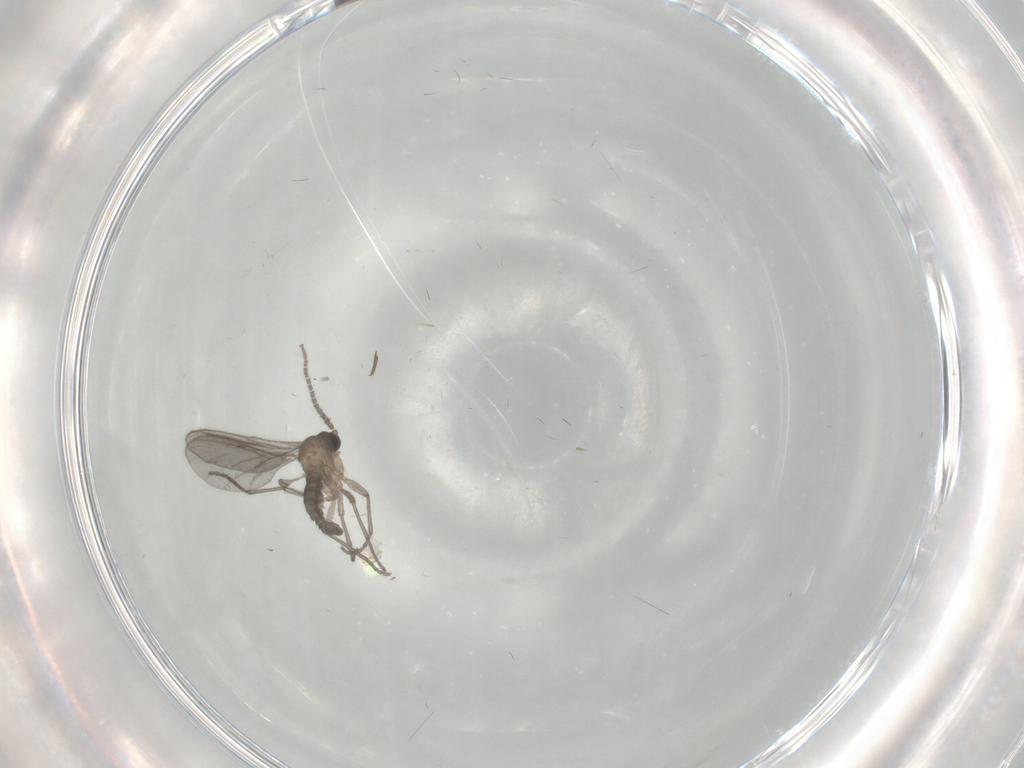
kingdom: Animalia
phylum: Arthropoda
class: Insecta
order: Diptera
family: Sciaridae
